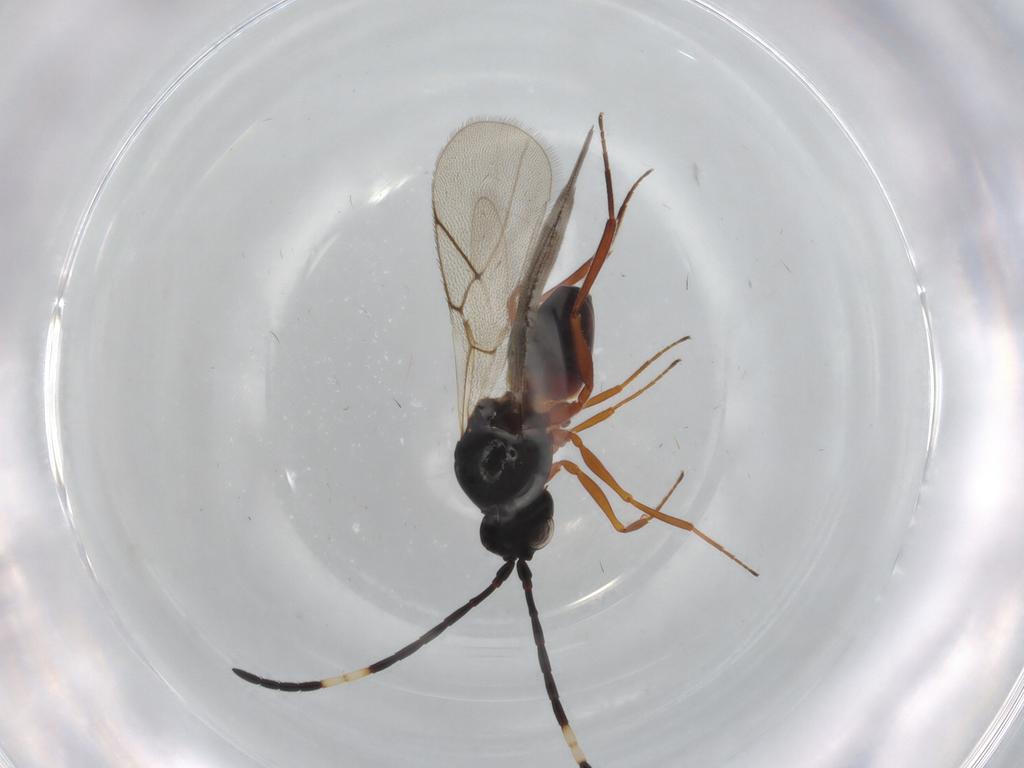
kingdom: Animalia
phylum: Arthropoda
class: Insecta
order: Hymenoptera
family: Figitidae
